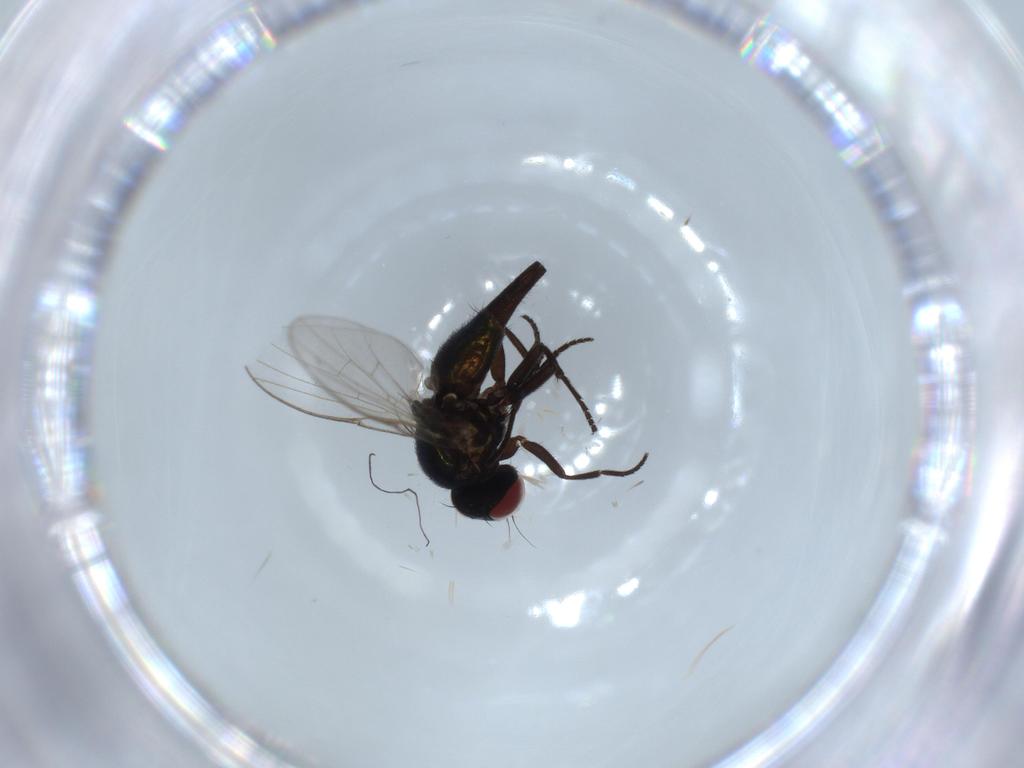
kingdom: Animalia
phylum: Arthropoda
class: Insecta
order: Diptera
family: Agromyzidae
